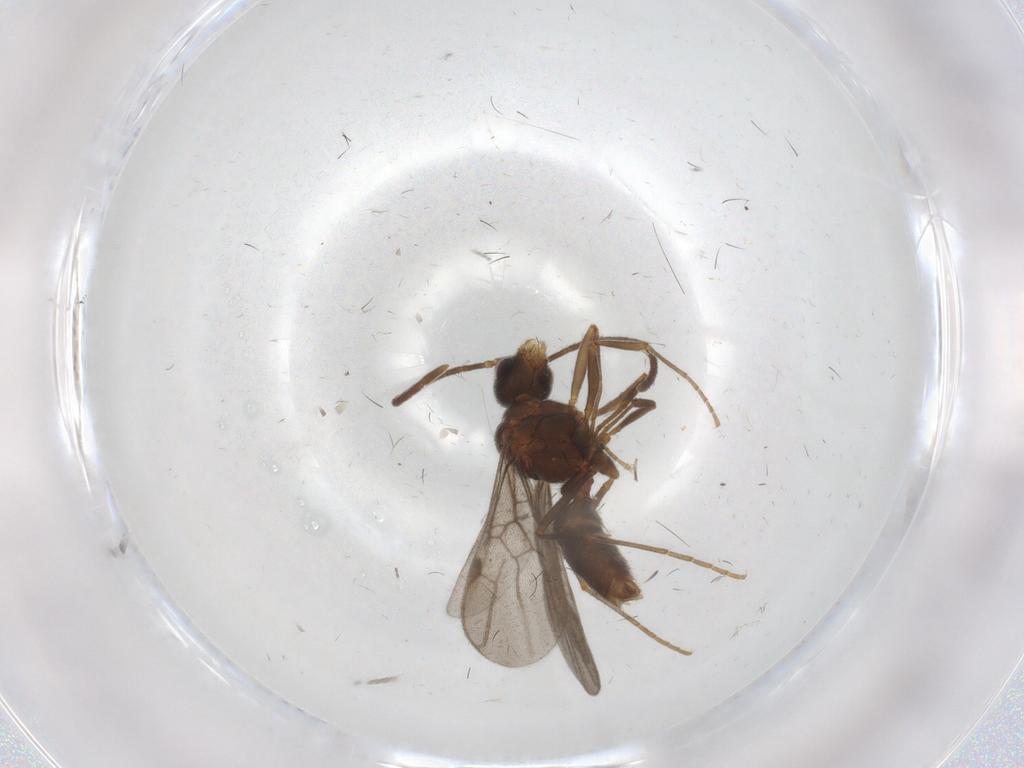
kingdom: Animalia
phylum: Arthropoda
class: Insecta
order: Hymenoptera
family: Formicidae
